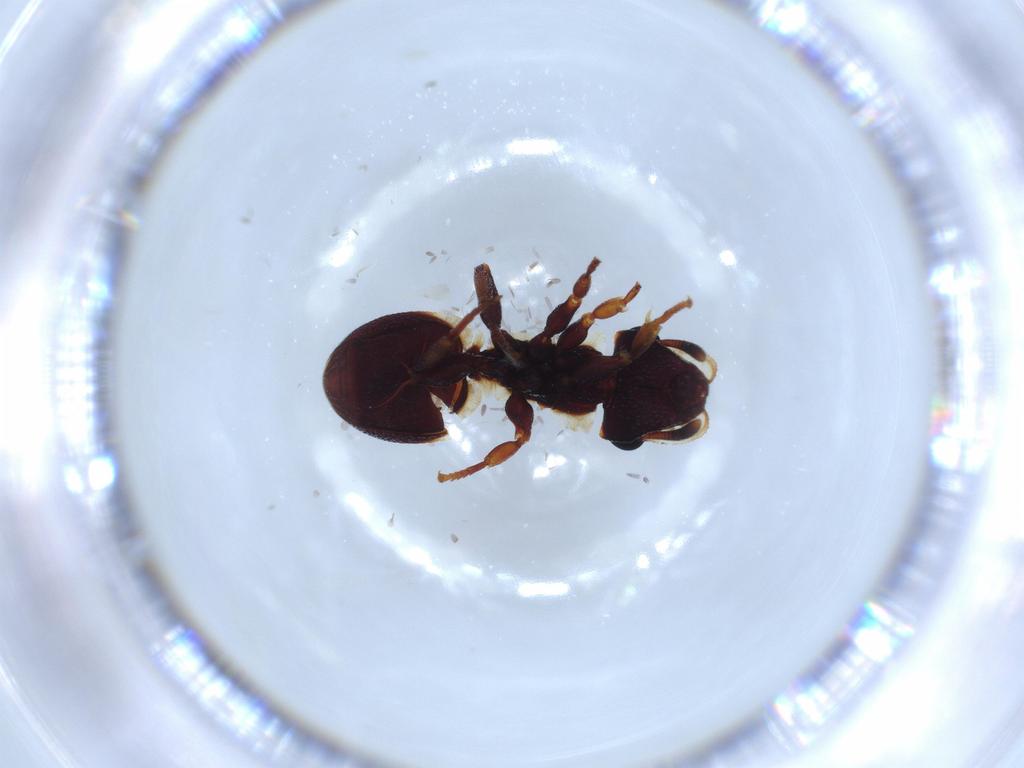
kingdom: Animalia
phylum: Arthropoda
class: Insecta
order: Hymenoptera
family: Formicidae
